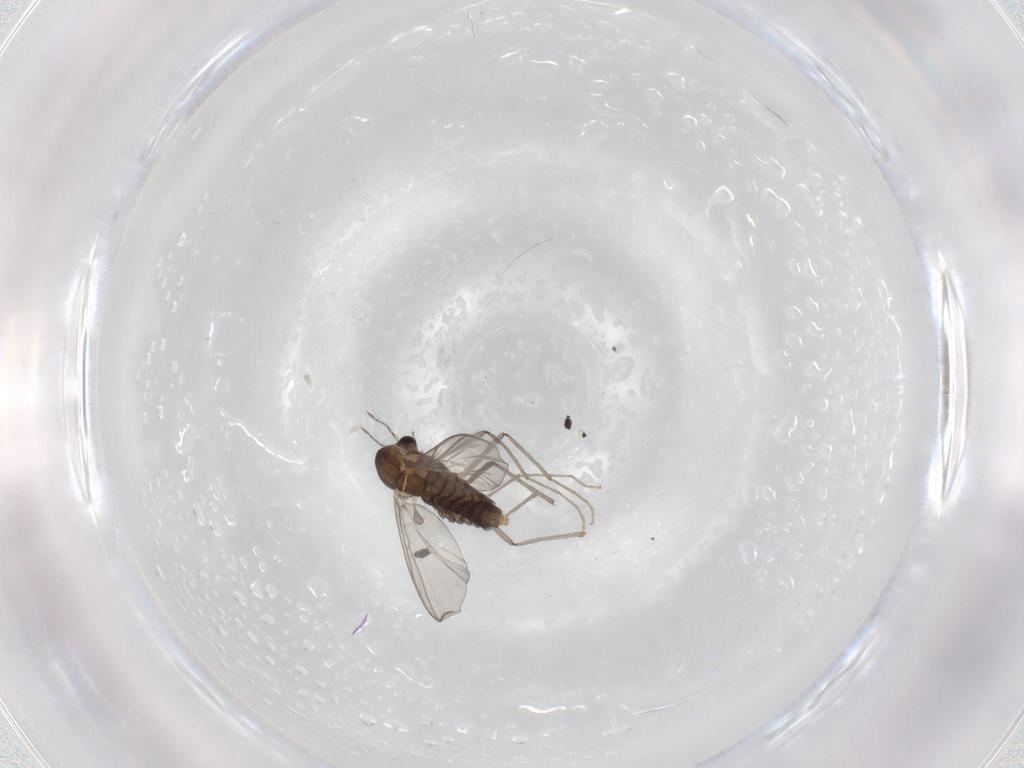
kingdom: Animalia
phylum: Arthropoda
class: Insecta
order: Diptera
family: Chironomidae
